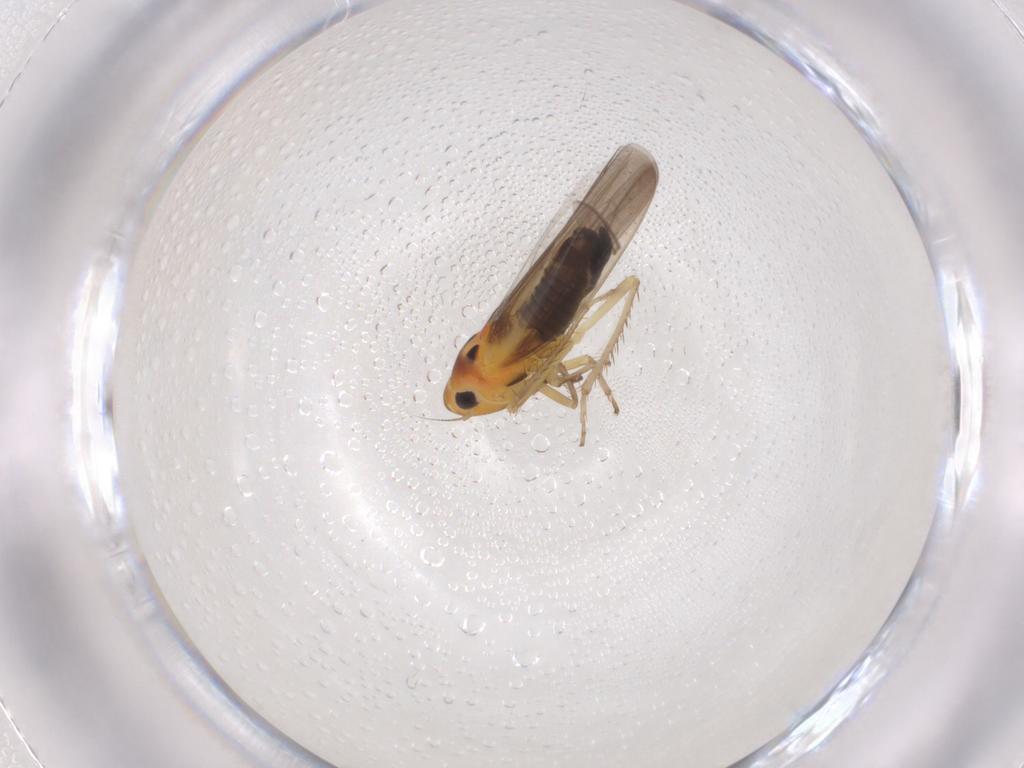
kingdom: Animalia
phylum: Arthropoda
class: Insecta
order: Hemiptera
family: Cicadellidae
